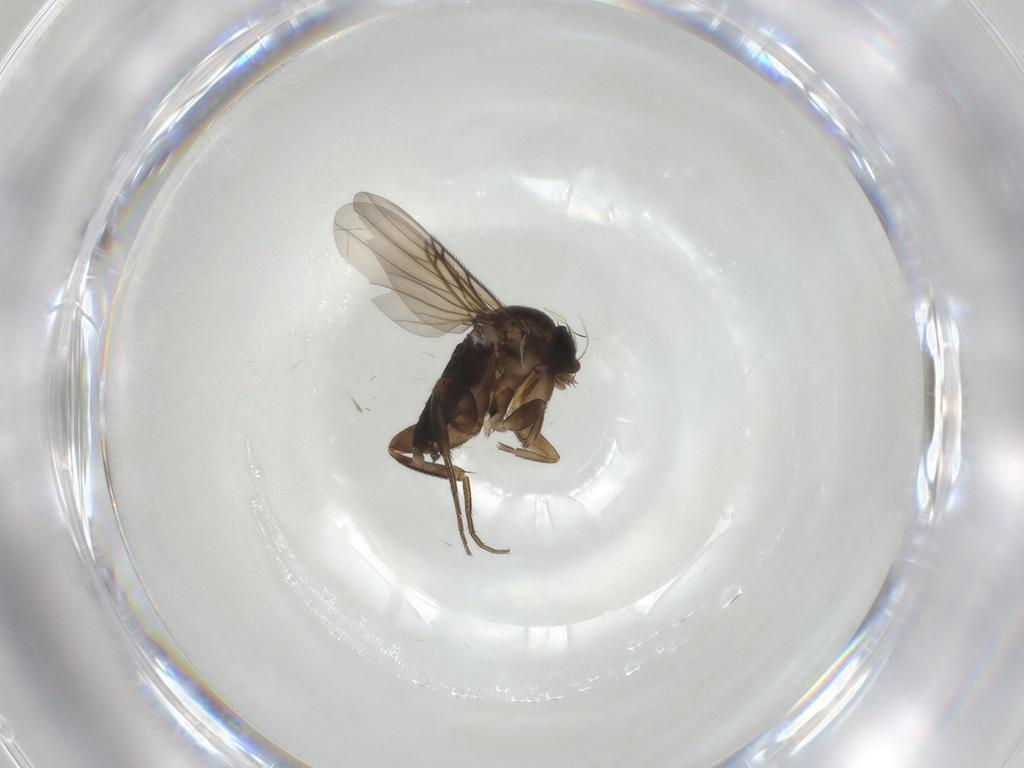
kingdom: Animalia
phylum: Arthropoda
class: Insecta
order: Diptera
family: Phoridae
